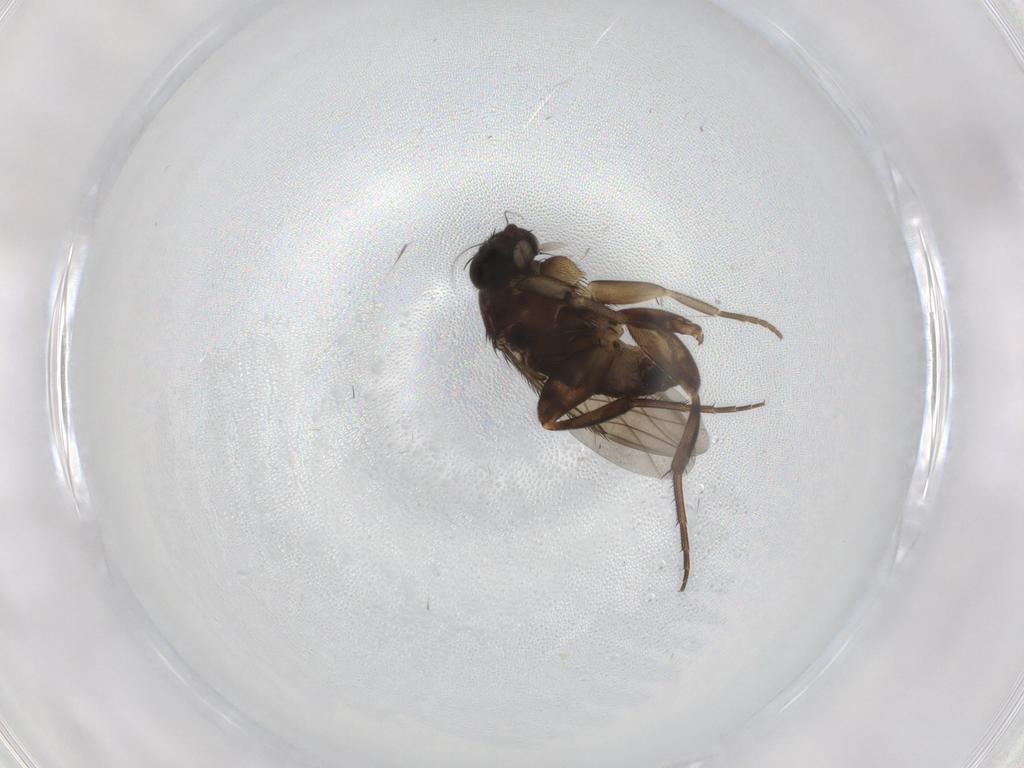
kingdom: Animalia
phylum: Arthropoda
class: Insecta
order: Diptera
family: Phoridae
